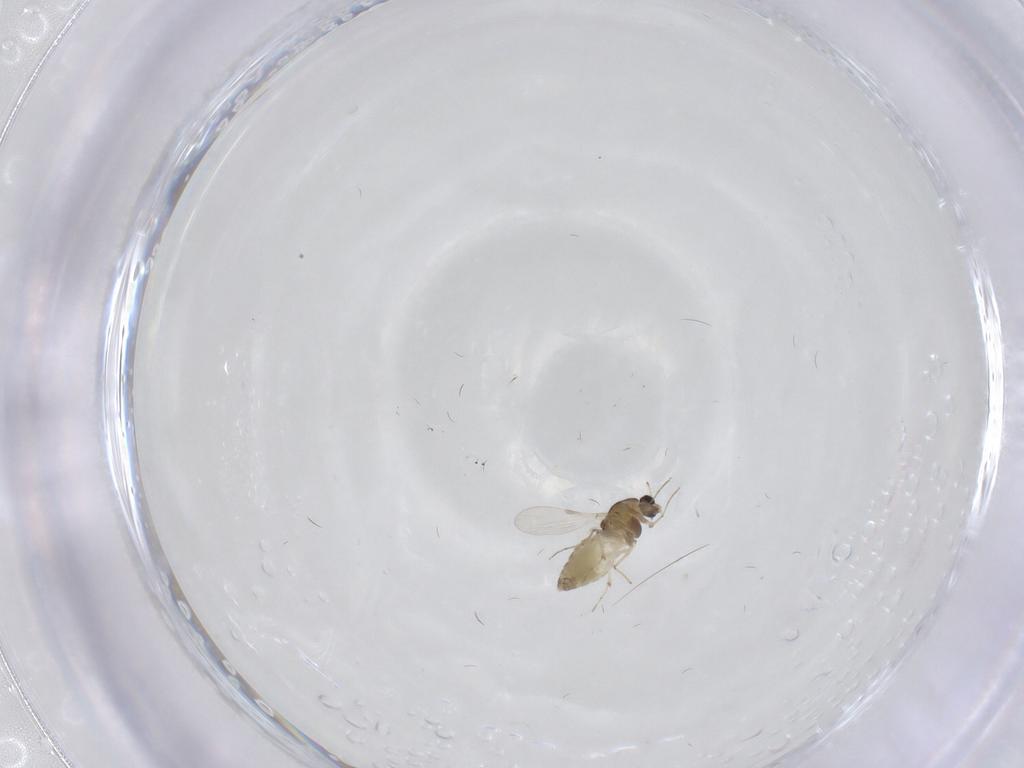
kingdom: Animalia
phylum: Arthropoda
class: Insecta
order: Diptera
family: Chironomidae
